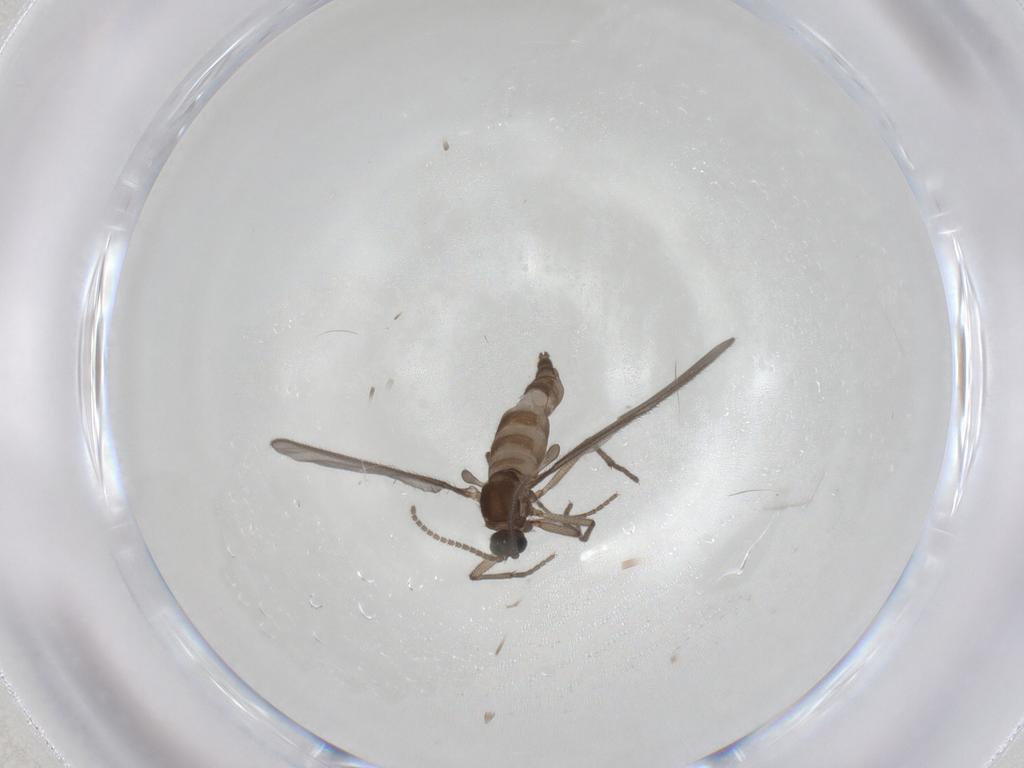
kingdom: Animalia
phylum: Arthropoda
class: Insecta
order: Diptera
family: Sciaridae
